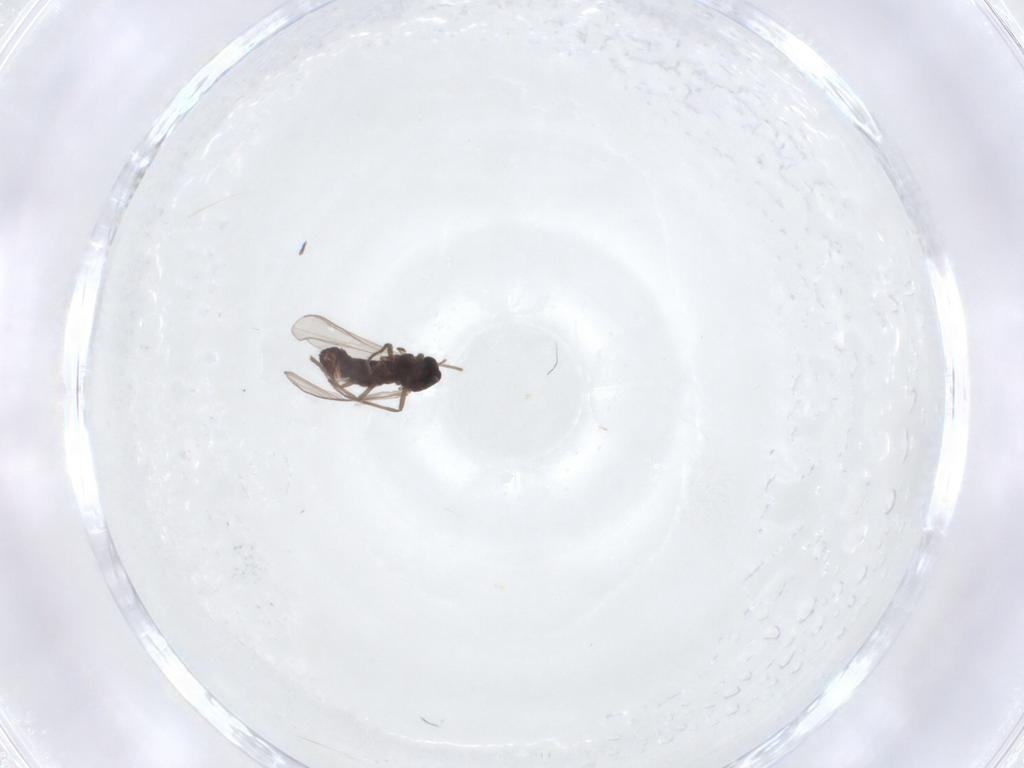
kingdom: Animalia
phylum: Arthropoda
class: Insecta
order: Diptera
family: Chironomidae
